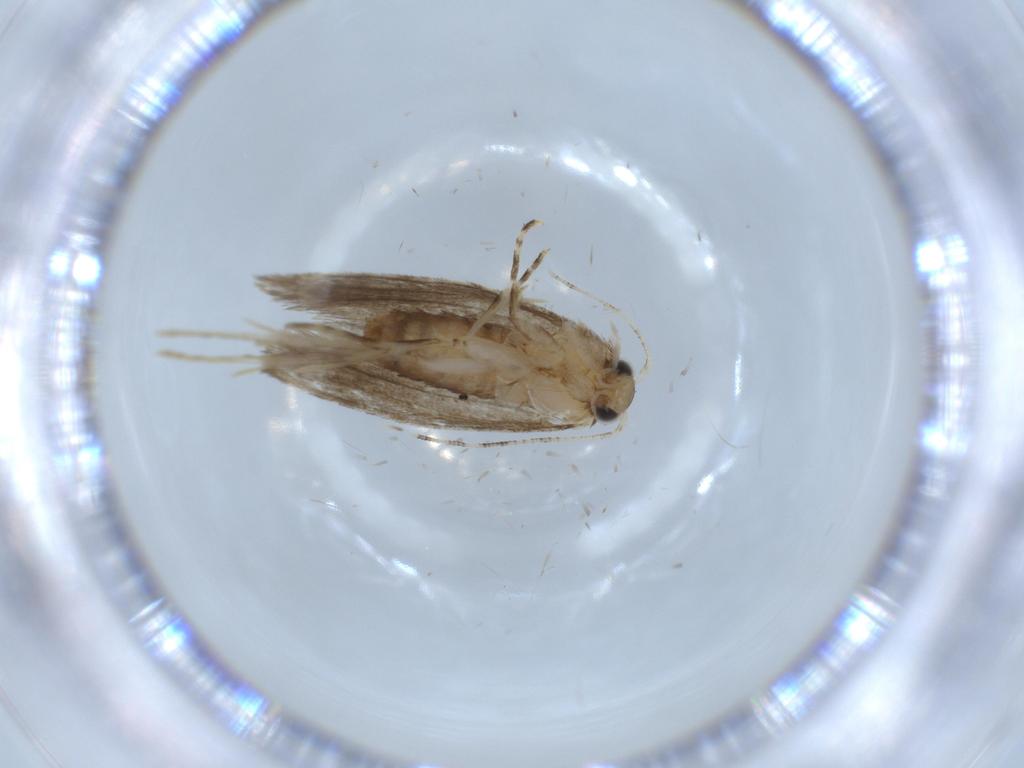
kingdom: Animalia
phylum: Arthropoda
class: Insecta
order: Lepidoptera
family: Tineidae
